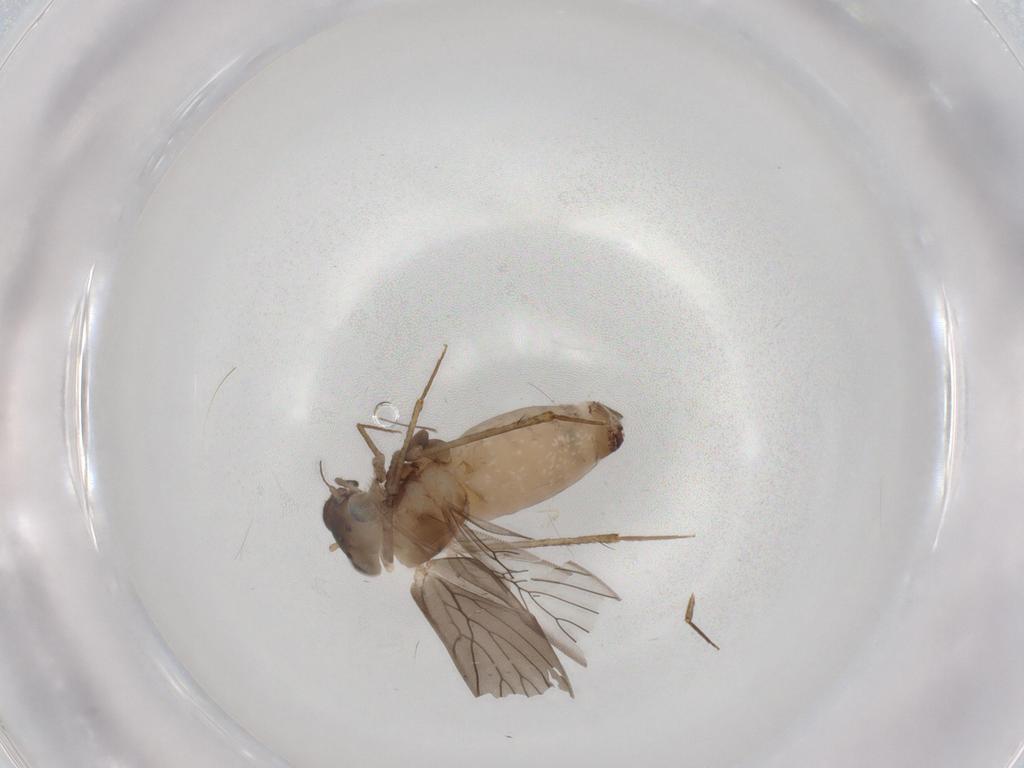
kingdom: Animalia
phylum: Arthropoda
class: Insecta
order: Psocodea
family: Lepidopsocidae
